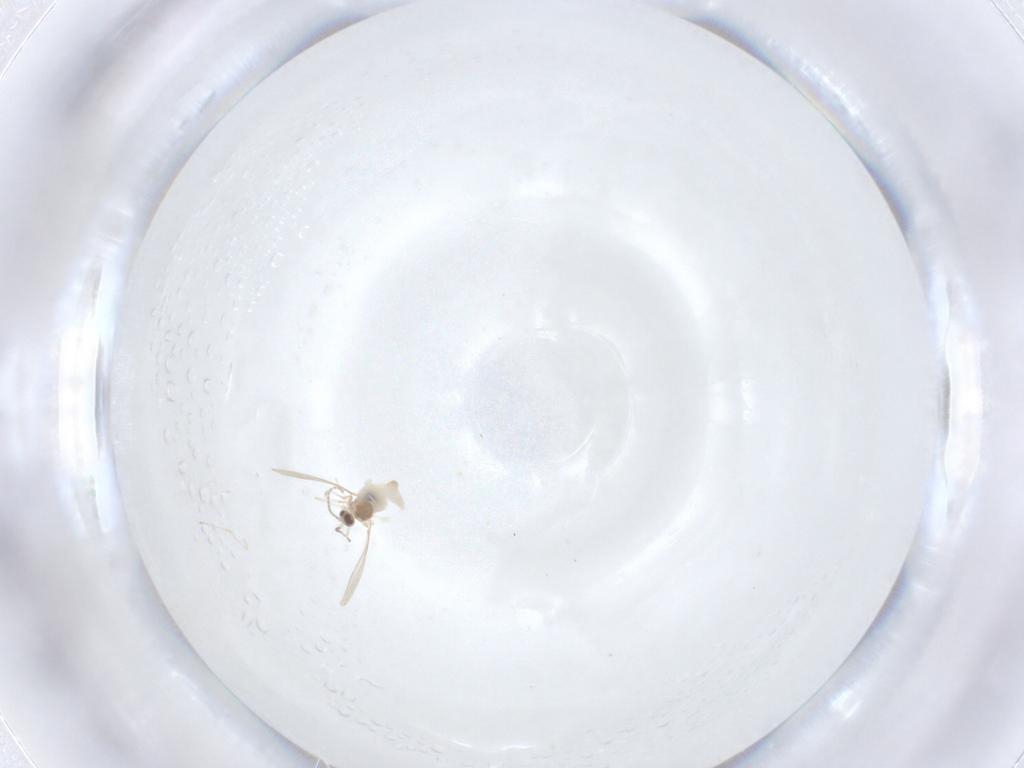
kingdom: Animalia
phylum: Arthropoda
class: Insecta
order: Diptera
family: Cecidomyiidae
